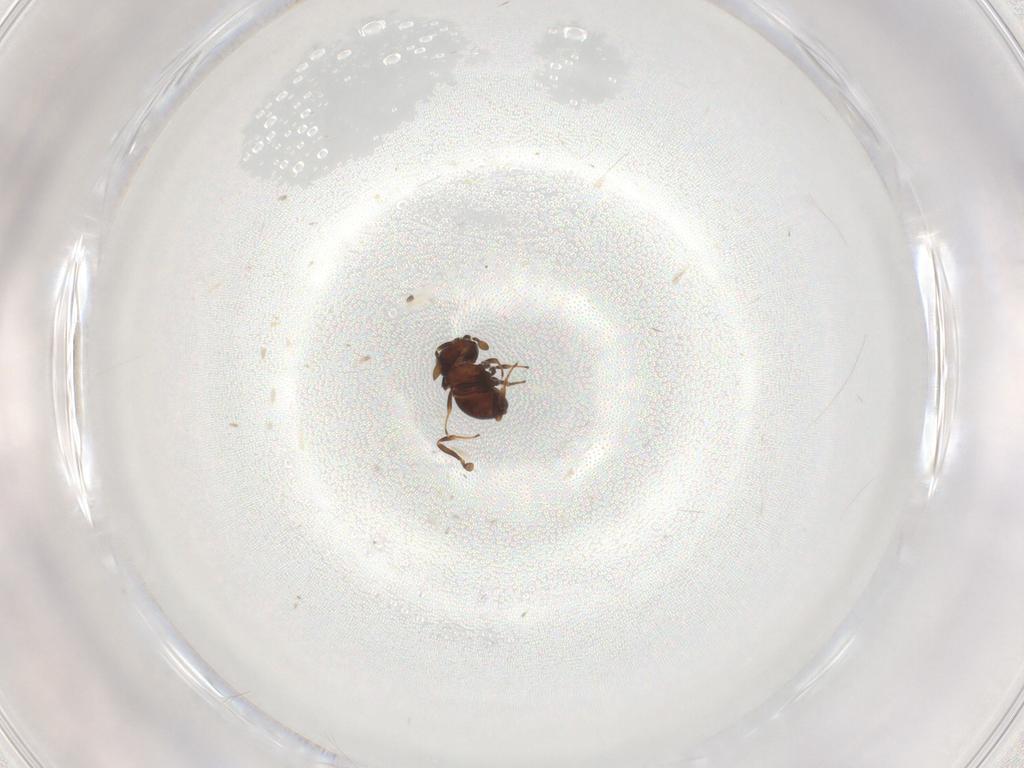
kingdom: Animalia
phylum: Arthropoda
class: Insecta
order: Hymenoptera
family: Scelionidae
